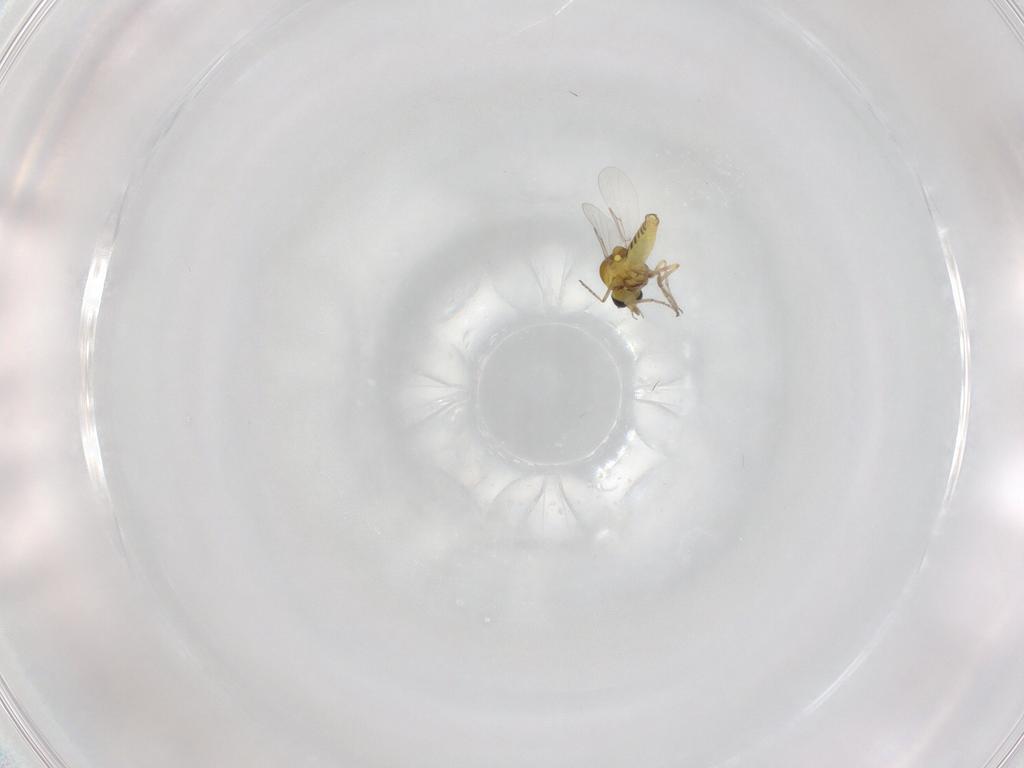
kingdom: Animalia
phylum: Arthropoda
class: Insecta
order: Diptera
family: Ceratopogonidae
